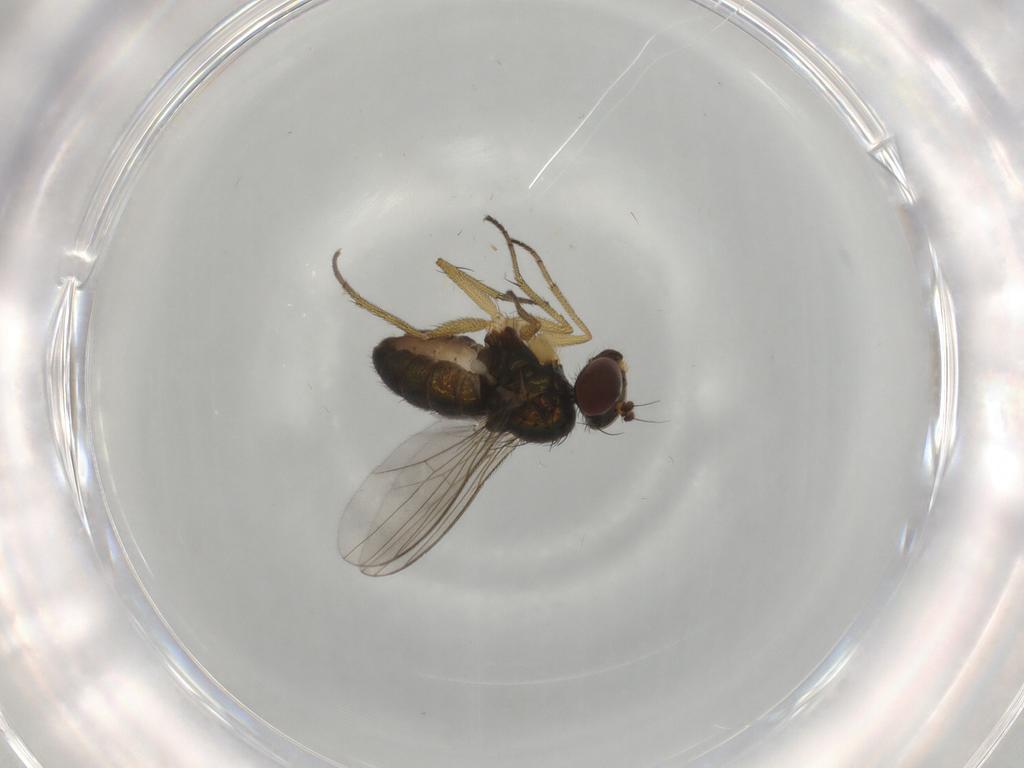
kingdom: Animalia
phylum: Arthropoda
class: Insecta
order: Diptera
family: Dolichopodidae
